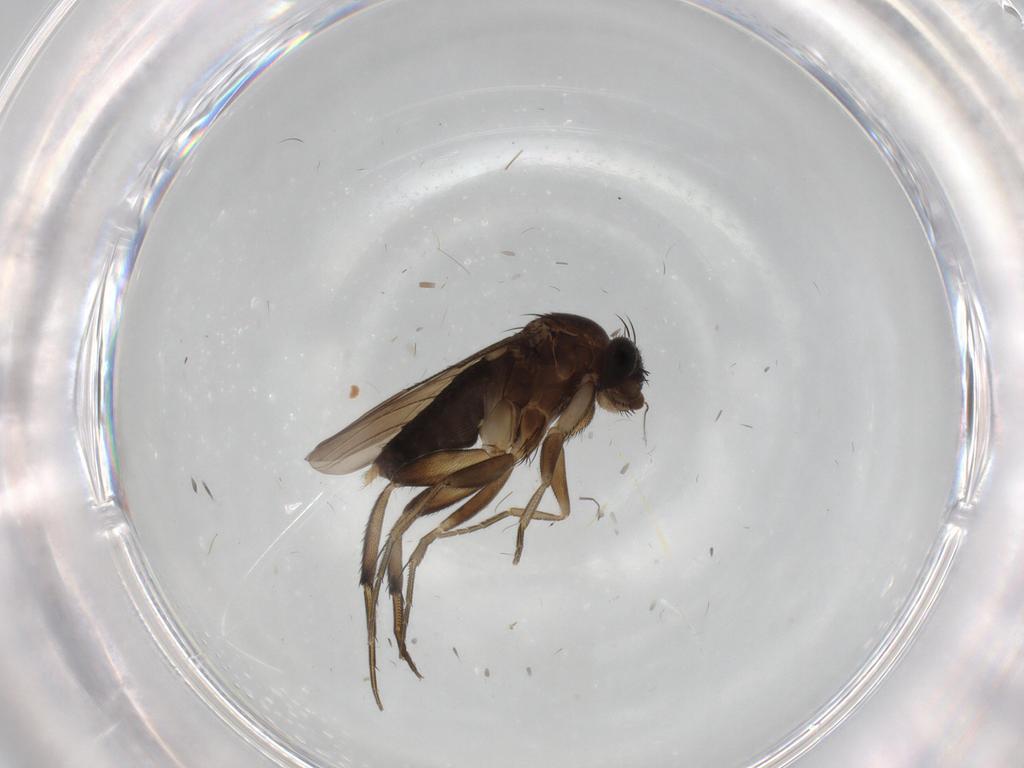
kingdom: Animalia
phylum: Arthropoda
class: Insecta
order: Diptera
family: Phoridae
